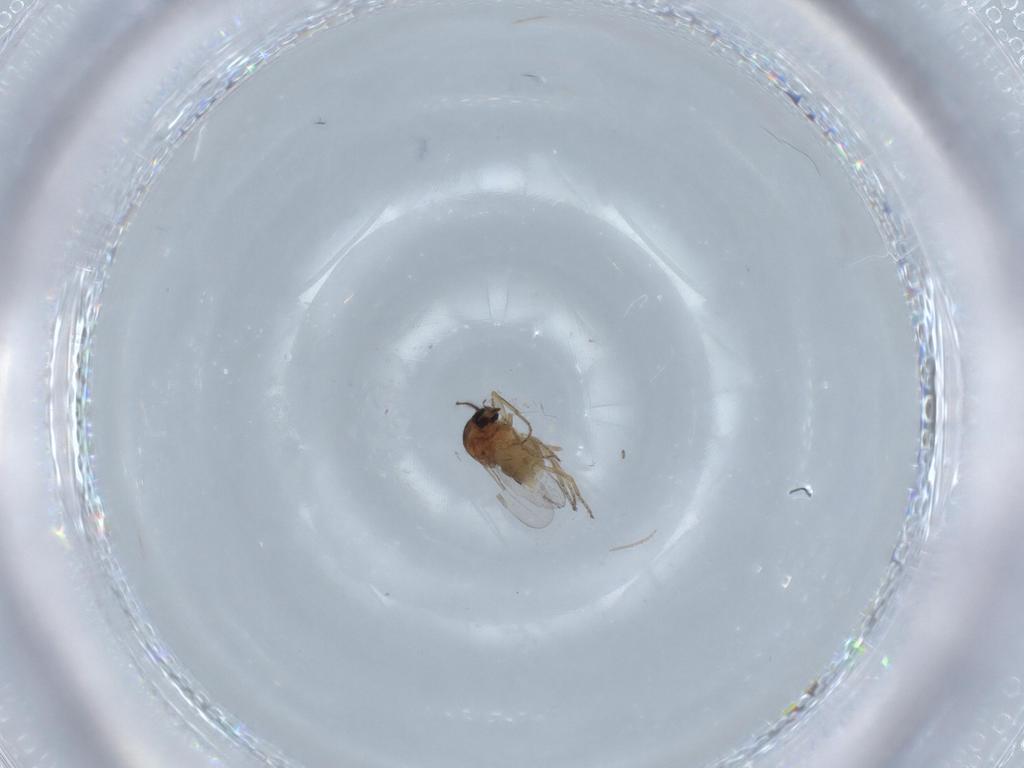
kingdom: Animalia
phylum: Arthropoda
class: Insecta
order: Diptera
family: Ceratopogonidae
